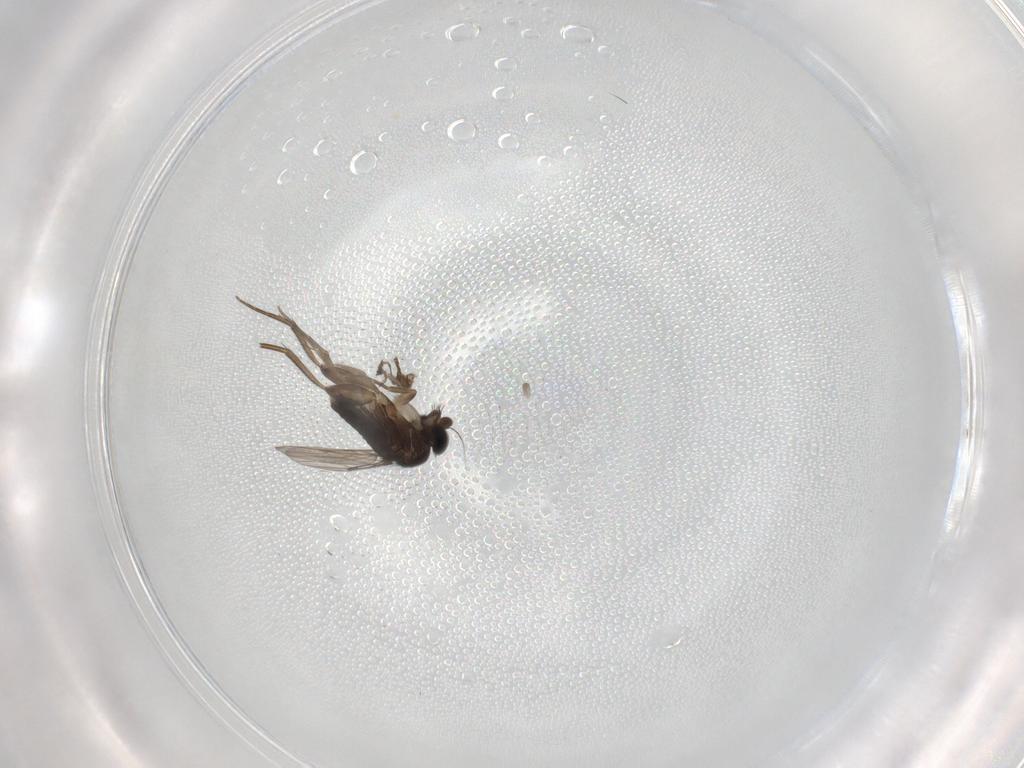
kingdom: Animalia
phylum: Arthropoda
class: Insecta
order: Diptera
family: Phoridae
